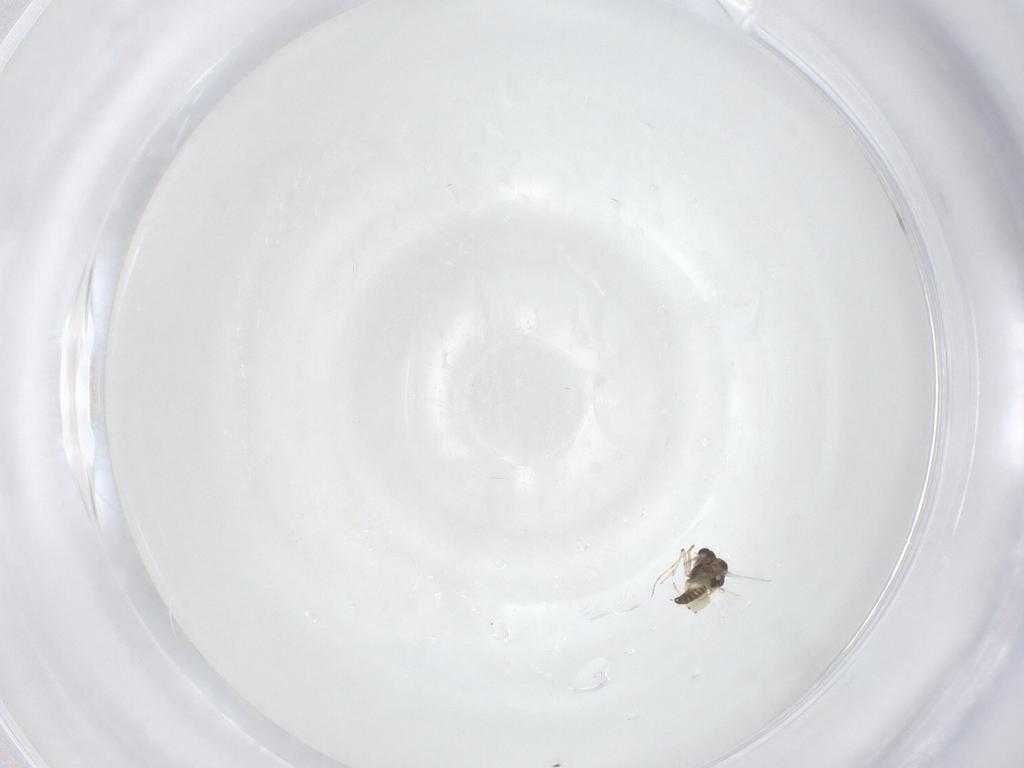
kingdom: Animalia
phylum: Arthropoda
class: Insecta
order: Diptera
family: Chironomidae
